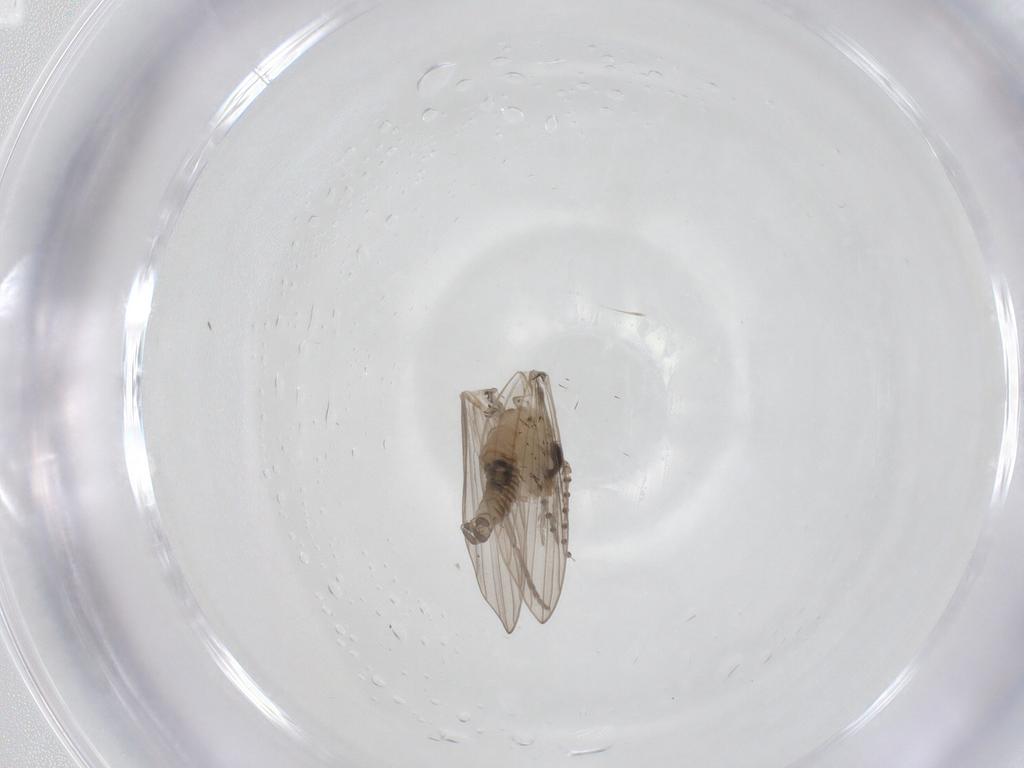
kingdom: Animalia
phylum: Arthropoda
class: Insecta
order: Diptera
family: Psychodidae
